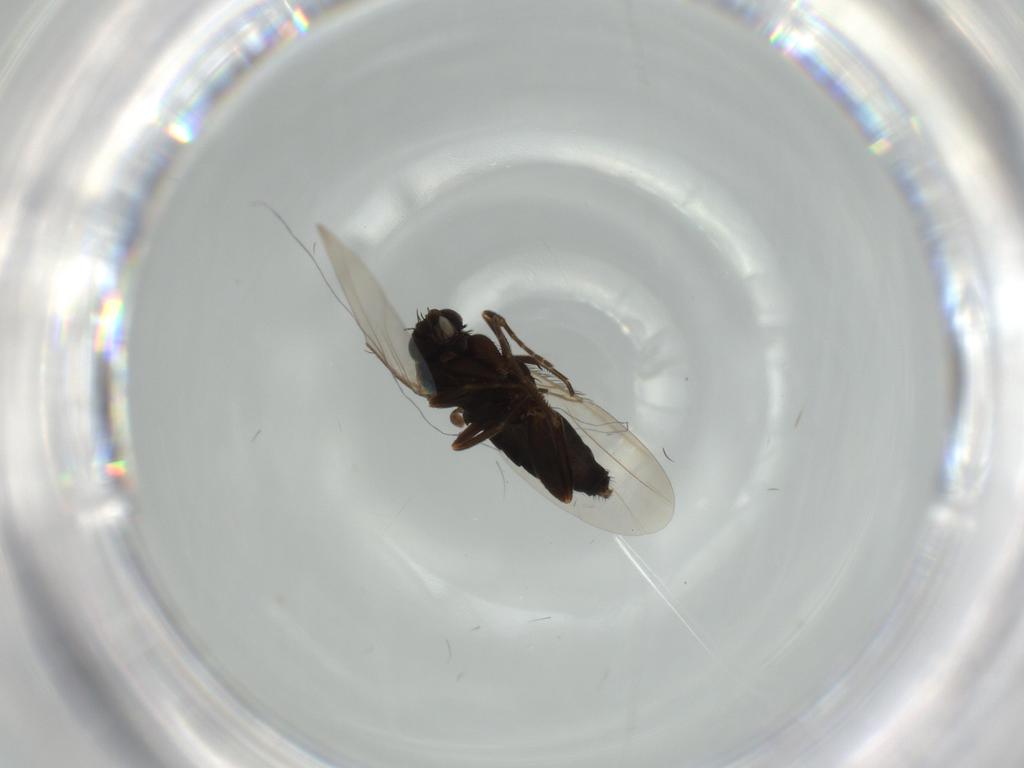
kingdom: Animalia
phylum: Arthropoda
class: Insecta
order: Diptera
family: Phoridae
